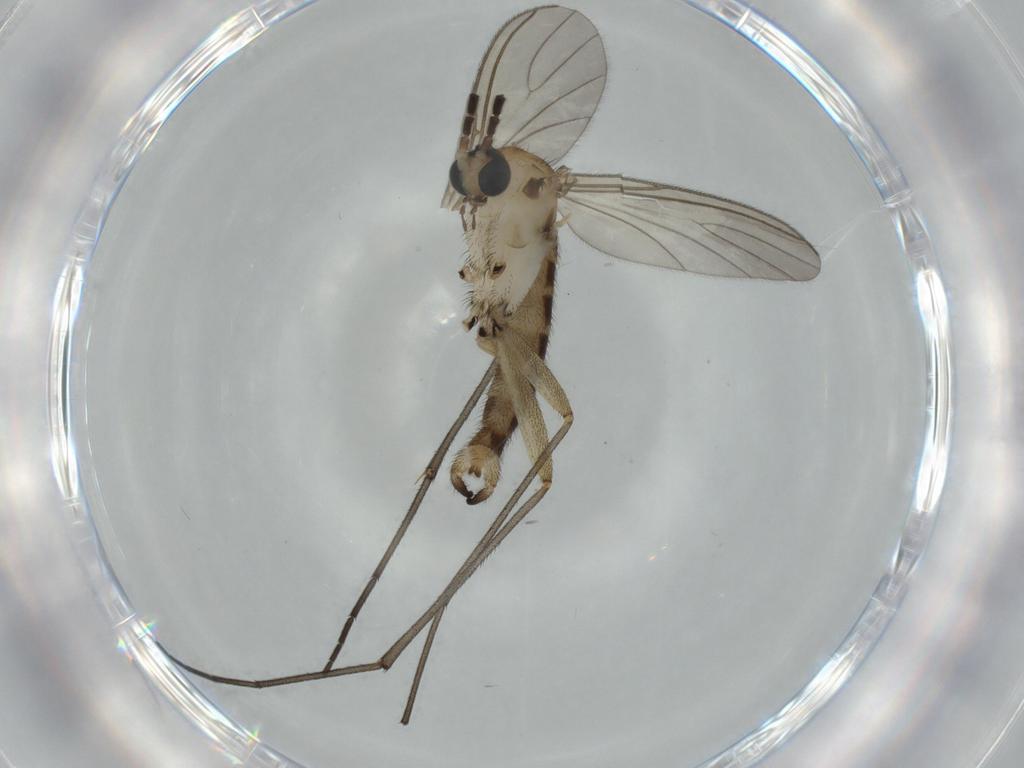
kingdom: Animalia
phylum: Arthropoda
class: Insecta
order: Diptera
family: Sciaridae
